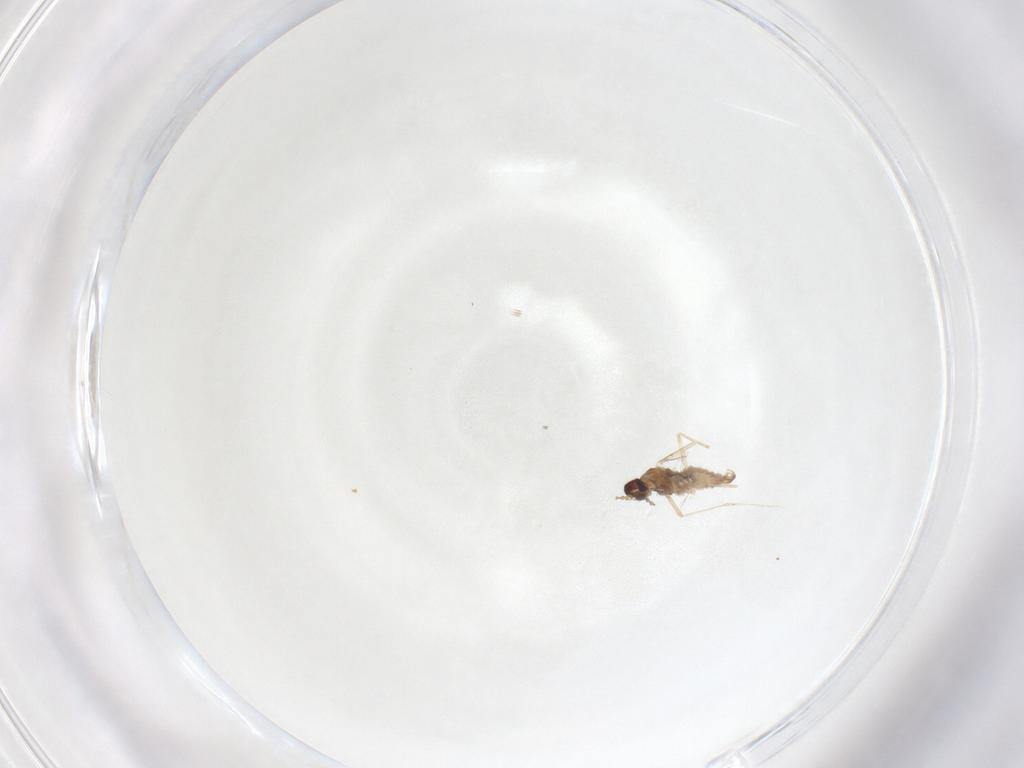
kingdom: Animalia
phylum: Arthropoda
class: Insecta
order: Diptera
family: Cecidomyiidae
